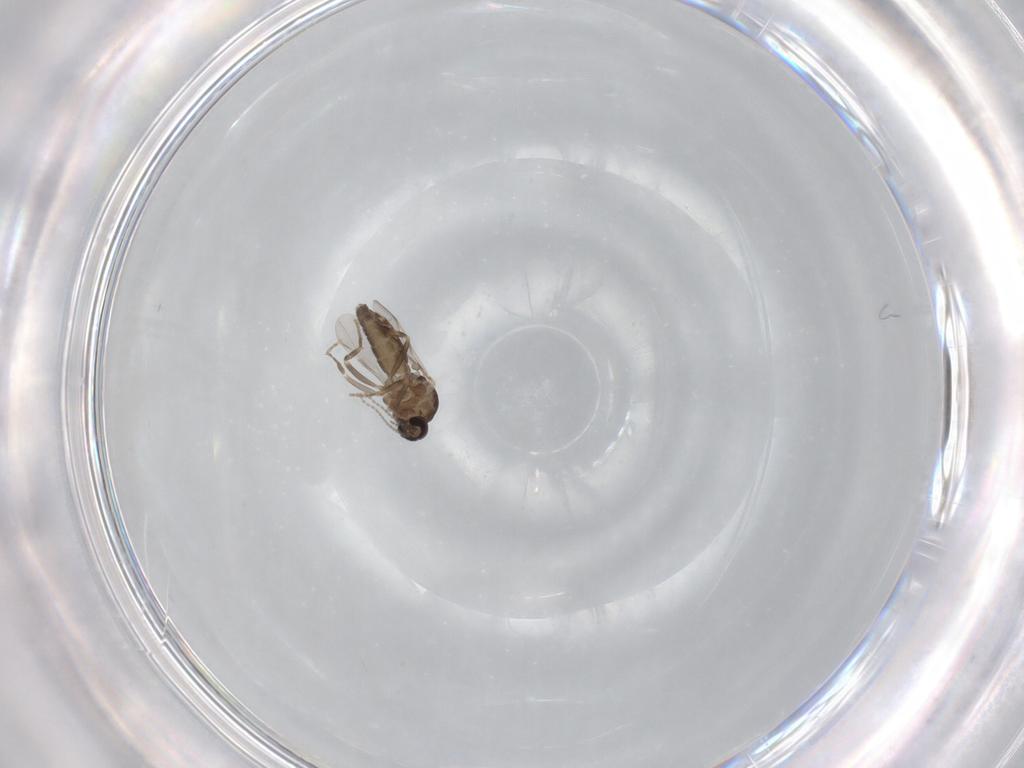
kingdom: Animalia
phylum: Arthropoda
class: Insecta
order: Diptera
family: Ceratopogonidae
